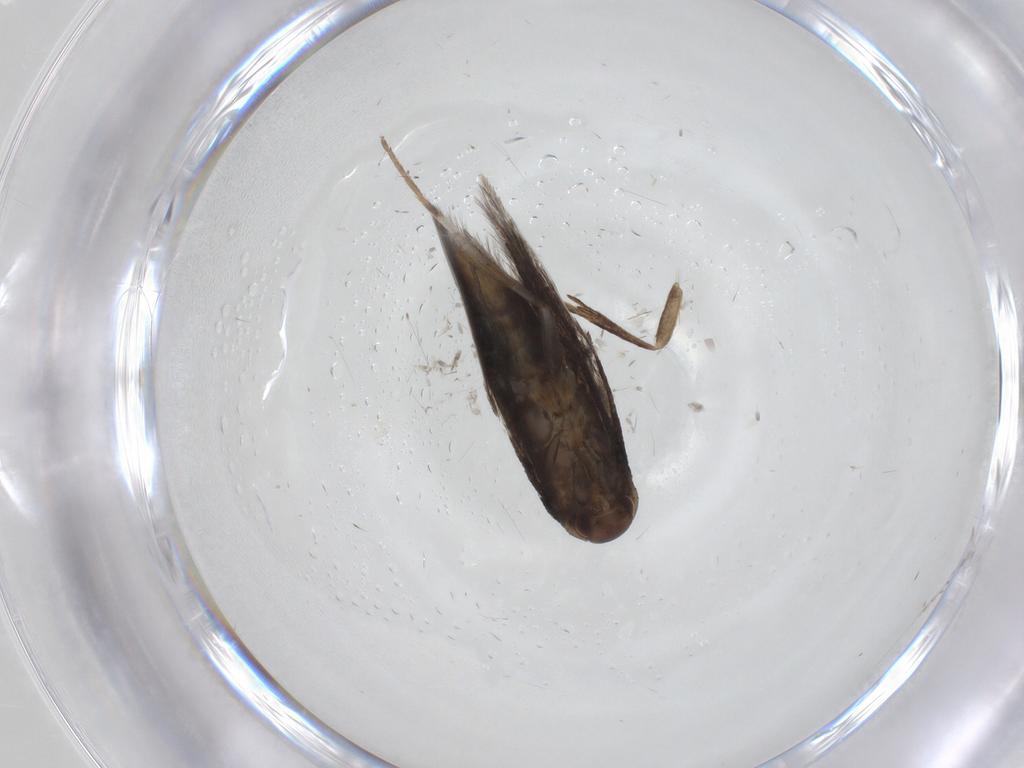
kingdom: Animalia
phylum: Arthropoda
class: Insecta
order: Lepidoptera
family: Elachistidae
